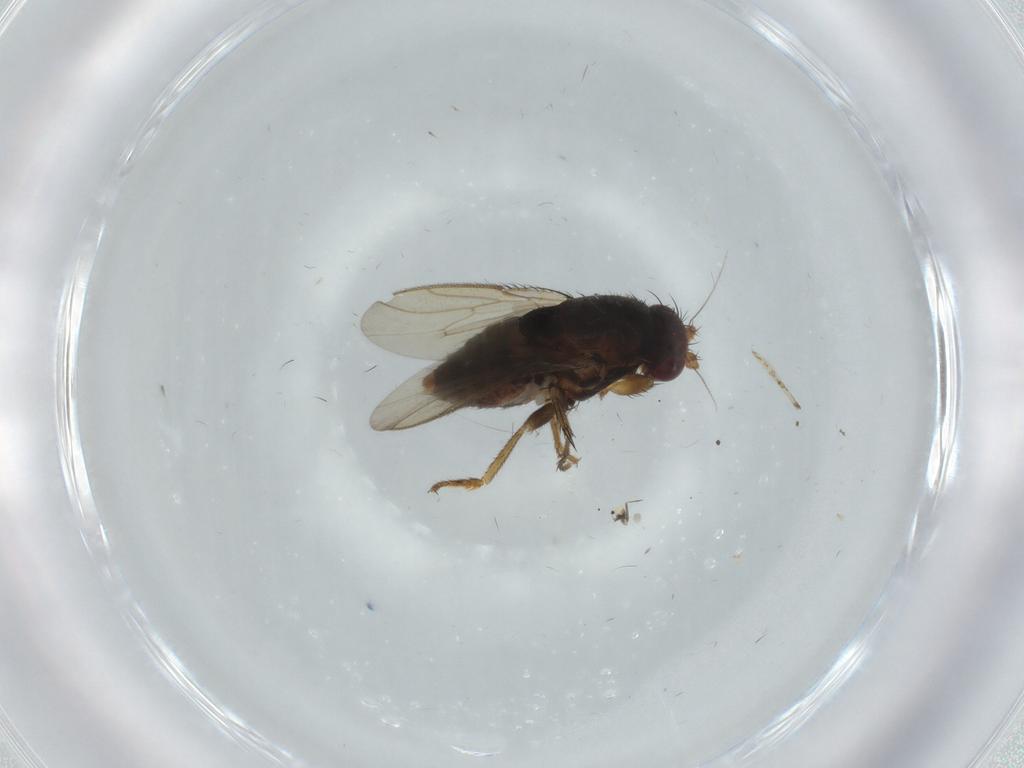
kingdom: Animalia
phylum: Arthropoda
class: Insecta
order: Diptera
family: Sphaeroceridae
